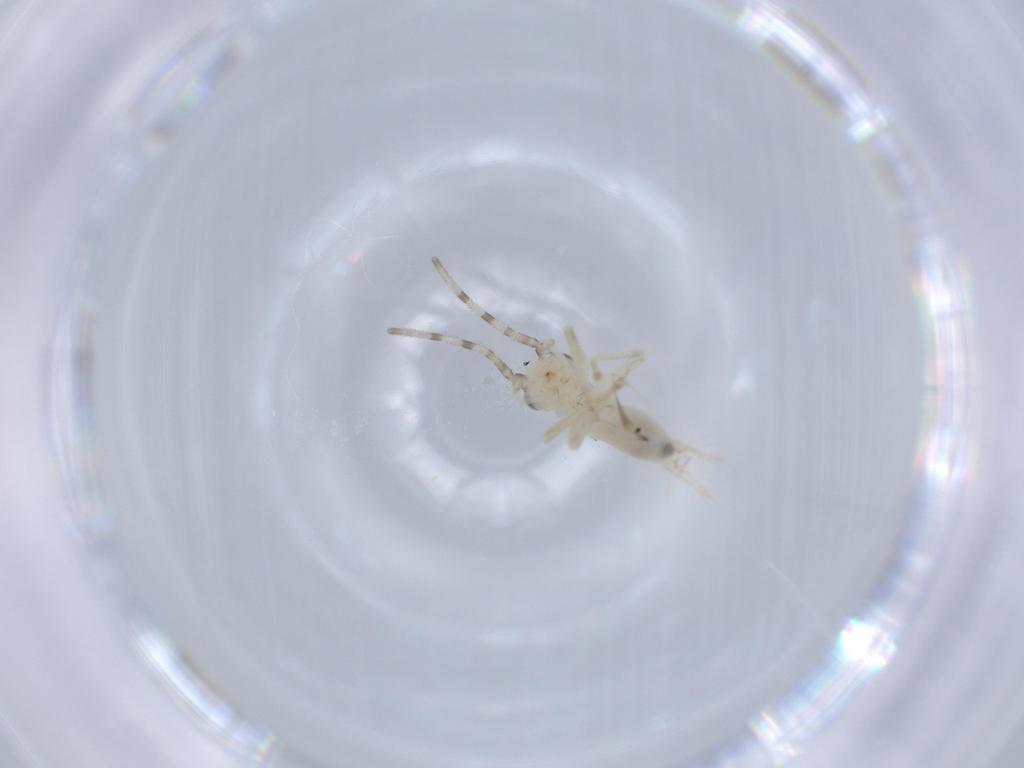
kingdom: Animalia
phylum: Arthropoda
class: Insecta
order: Orthoptera
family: Trigonidiidae
